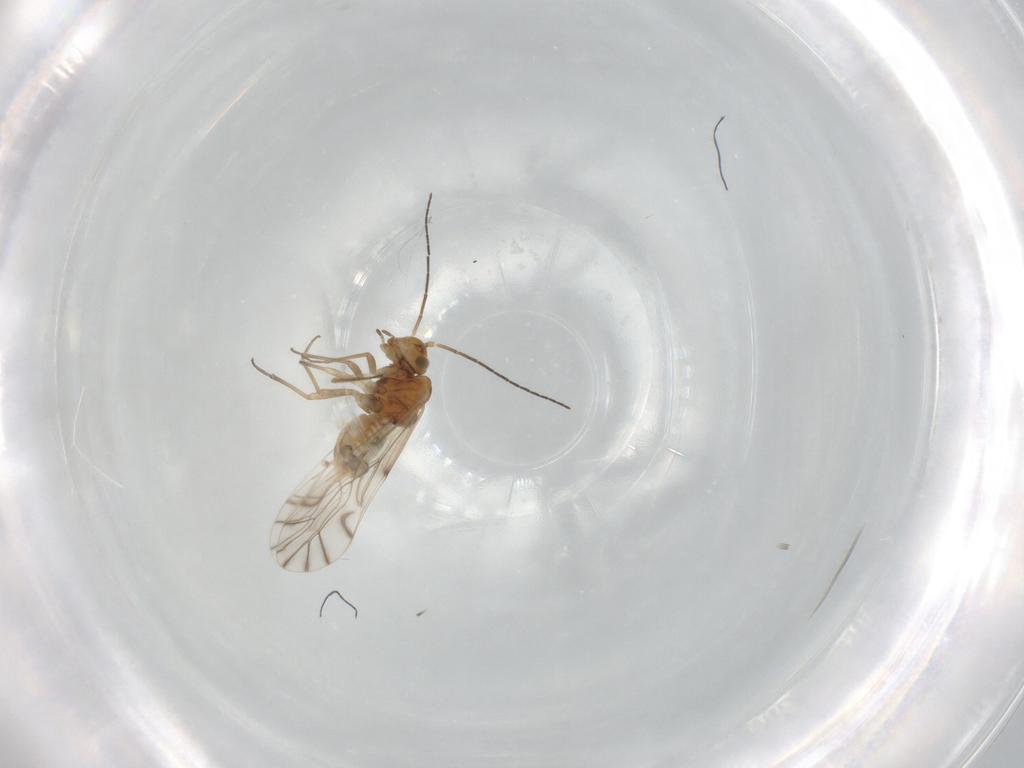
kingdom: Animalia
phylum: Arthropoda
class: Insecta
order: Psocodea
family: Lachesillidae
